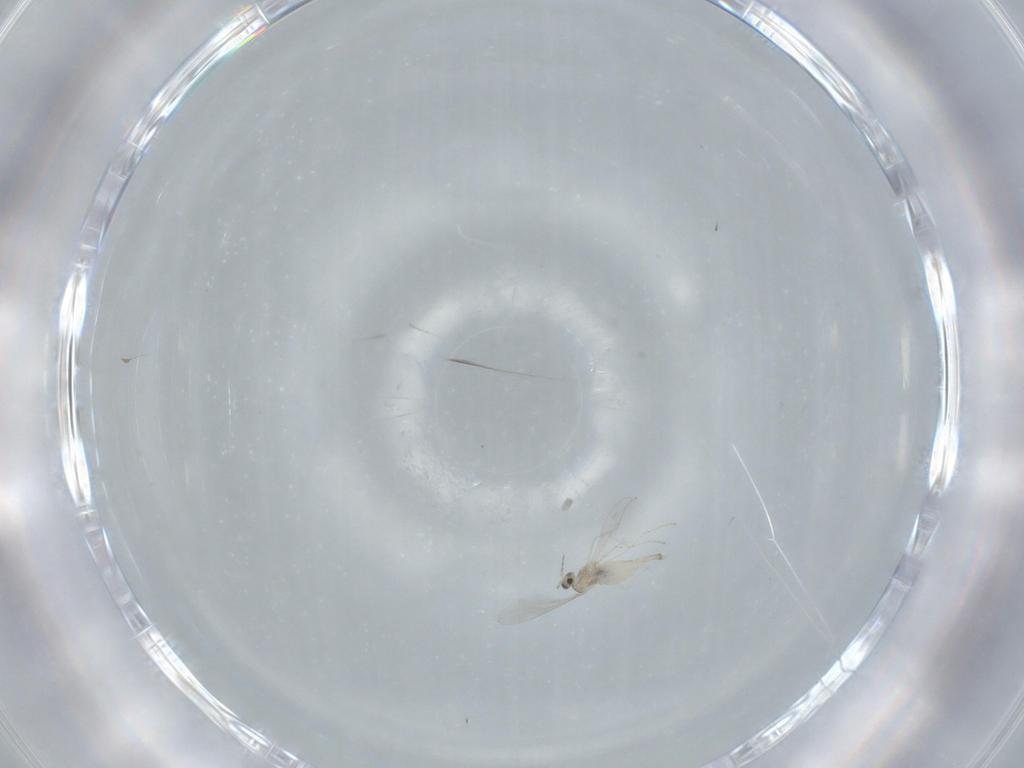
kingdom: Animalia
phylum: Arthropoda
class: Insecta
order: Diptera
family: Cecidomyiidae
